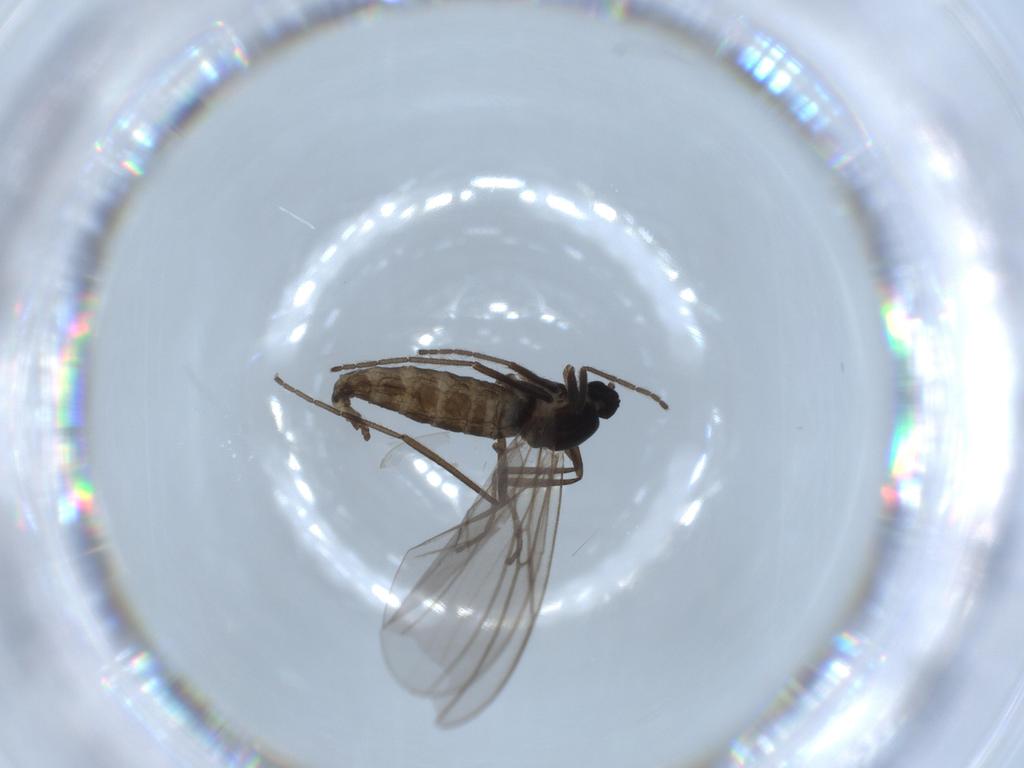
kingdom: Animalia
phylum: Arthropoda
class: Insecta
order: Diptera
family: Cecidomyiidae
